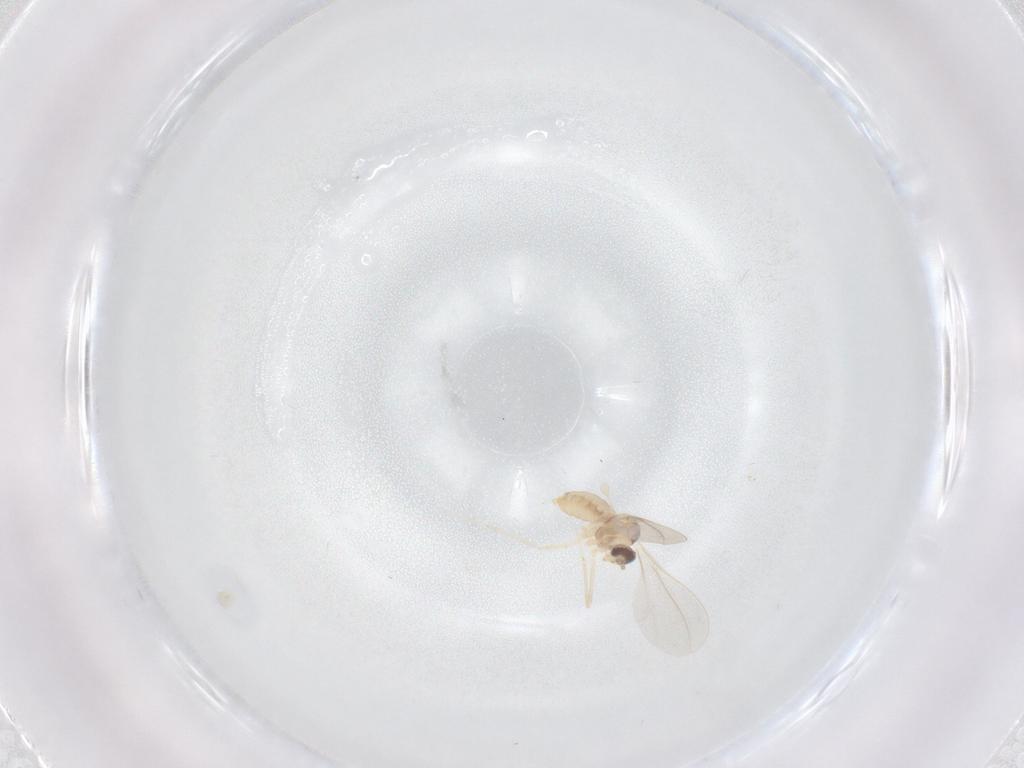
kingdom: Animalia
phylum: Arthropoda
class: Insecta
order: Diptera
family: Cecidomyiidae
